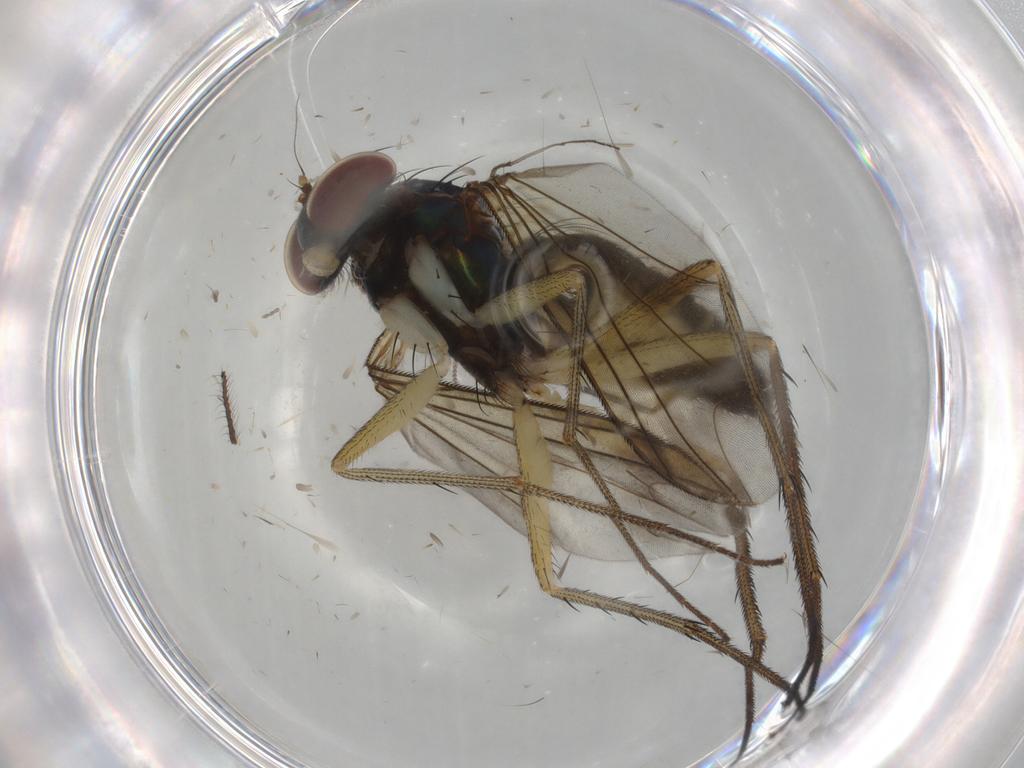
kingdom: Animalia
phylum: Arthropoda
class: Insecta
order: Diptera
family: Dolichopodidae
